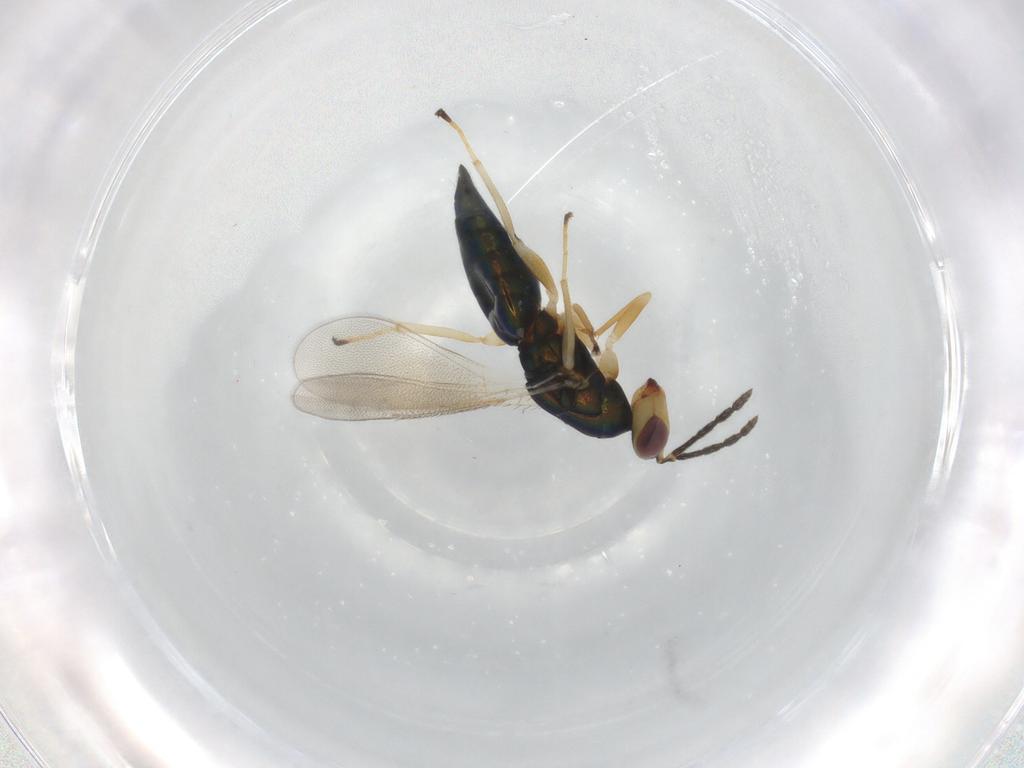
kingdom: Animalia
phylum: Arthropoda
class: Insecta
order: Hymenoptera
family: Eulophidae
